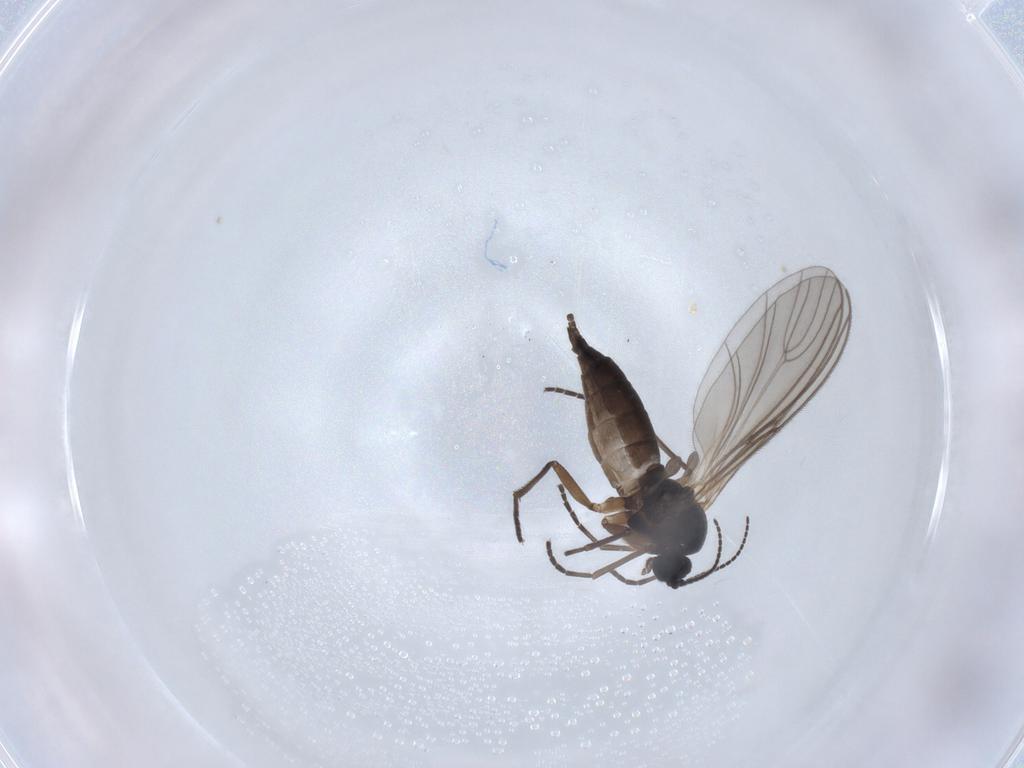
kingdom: Animalia
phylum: Arthropoda
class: Insecta
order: Diptera
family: Sciaridae
